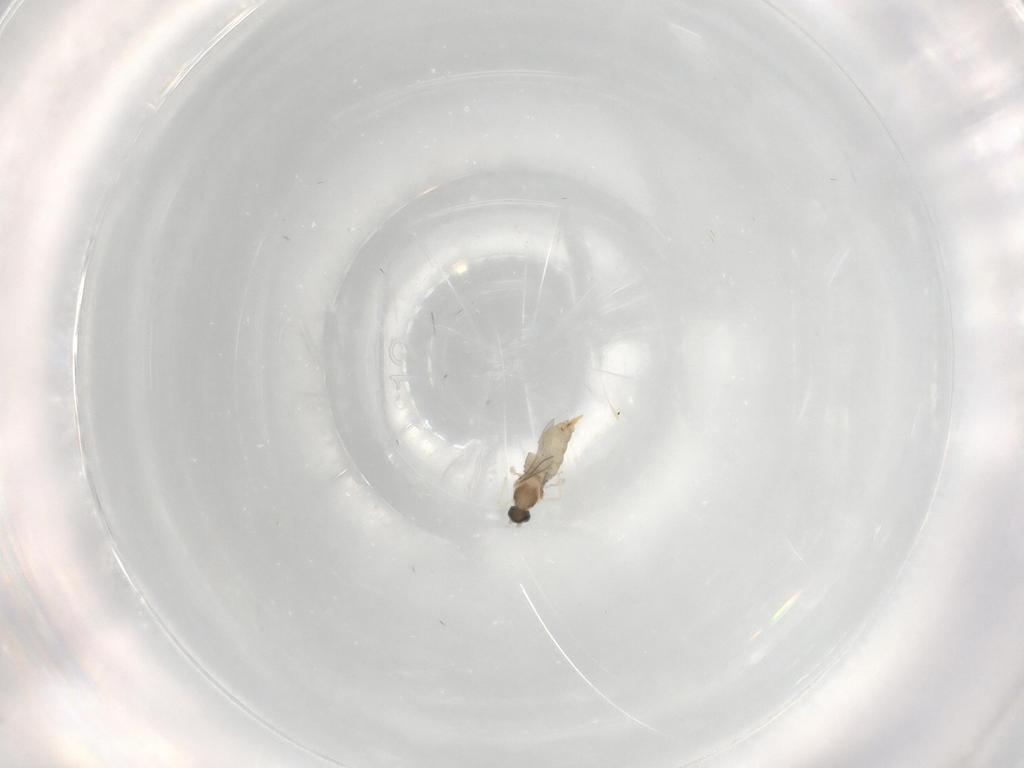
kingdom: Animalia
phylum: Arthropoda
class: Insecta
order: Diptera
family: Cecidomyiidae
